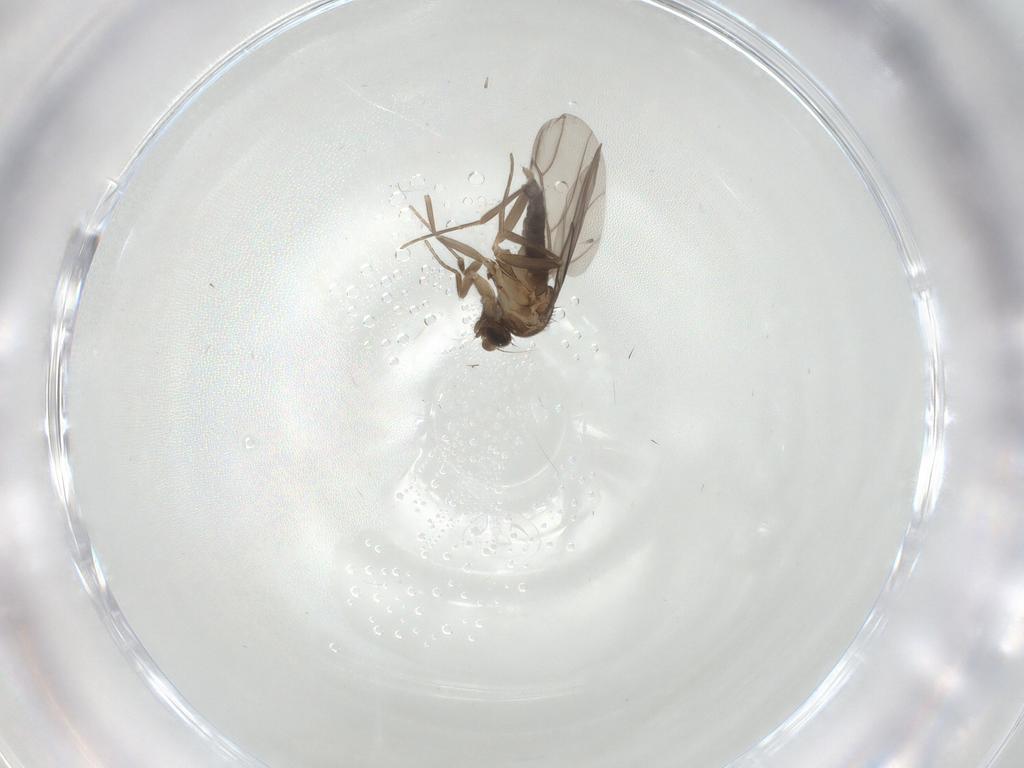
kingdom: Animalia
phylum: Arthropoda
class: Insecta
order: Diptera
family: Phoridae
